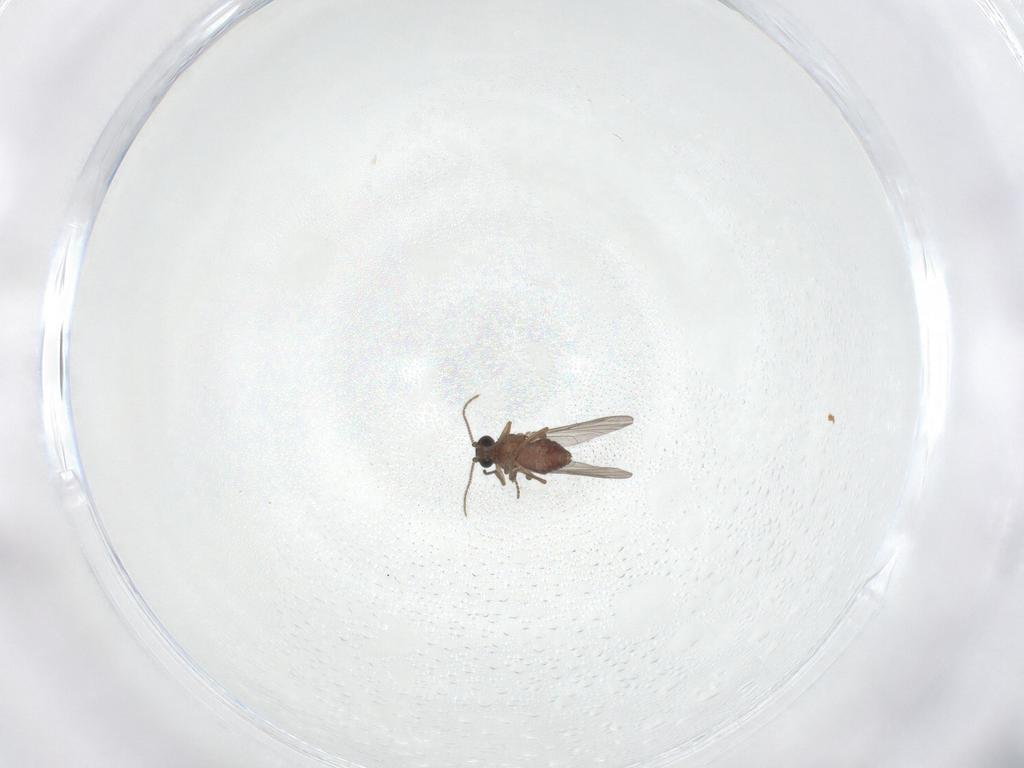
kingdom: Animalia
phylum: Arthropoda
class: Insecta
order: Diptera
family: Ceratopogonidae
